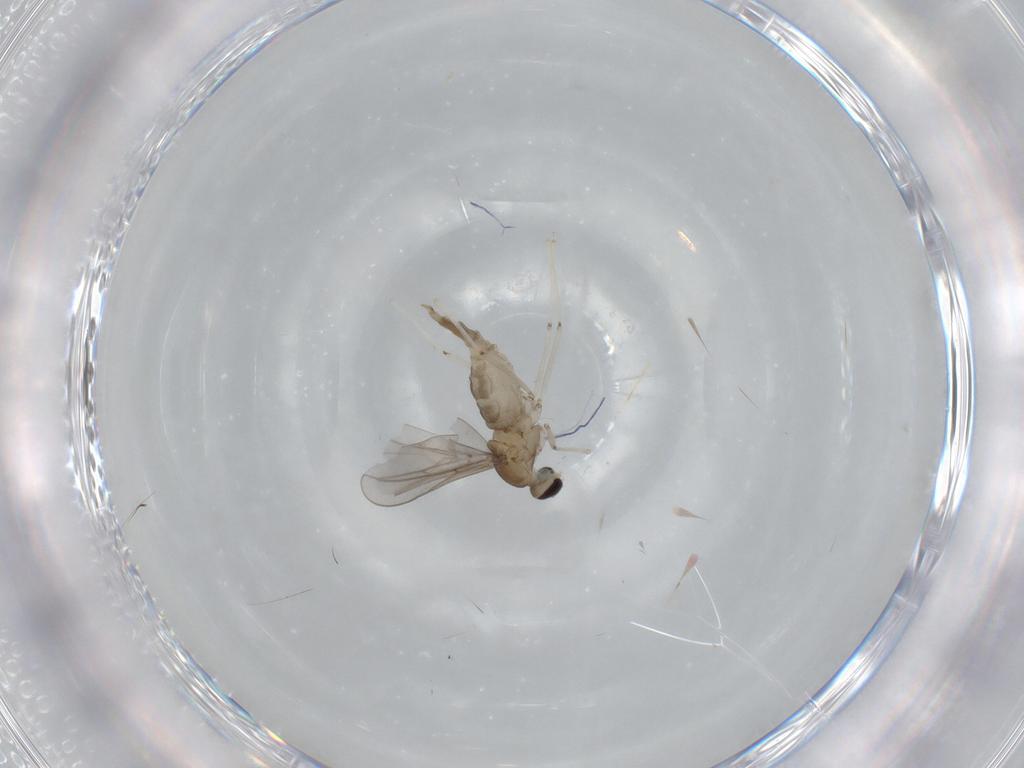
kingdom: Animalia
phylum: Arthropoda
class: Insecta
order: Diptera
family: Cecidomyiidae
